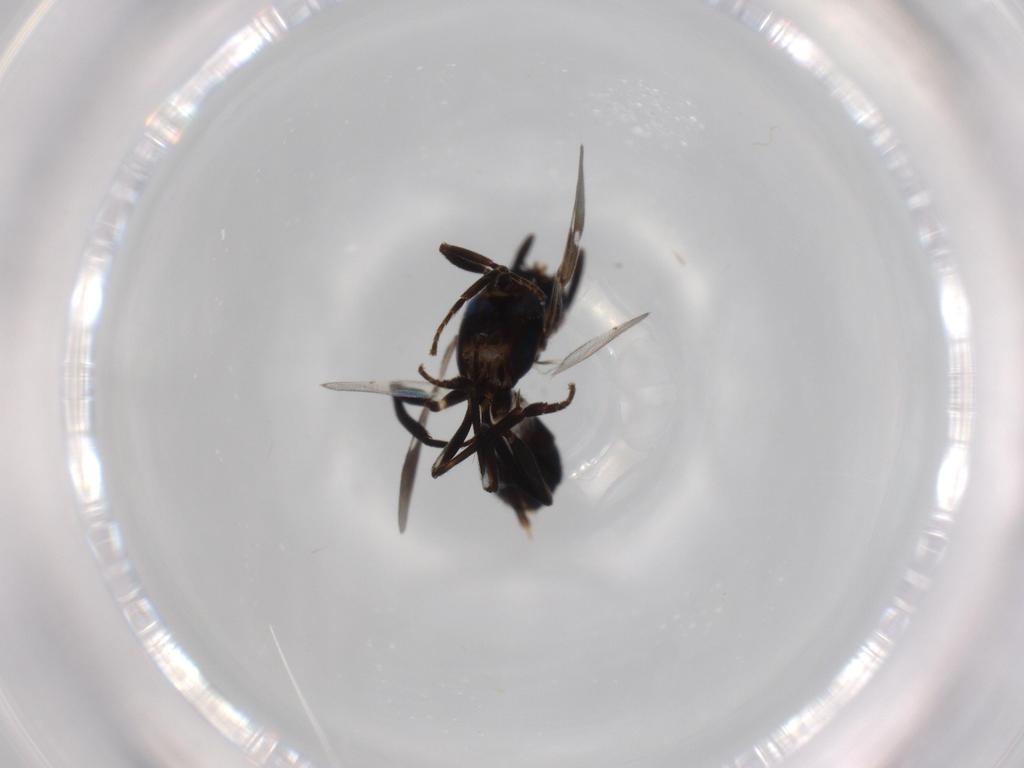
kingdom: Animalia
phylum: Arthropoda
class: Insecta
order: Hymenoptera
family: Eupelmidae
